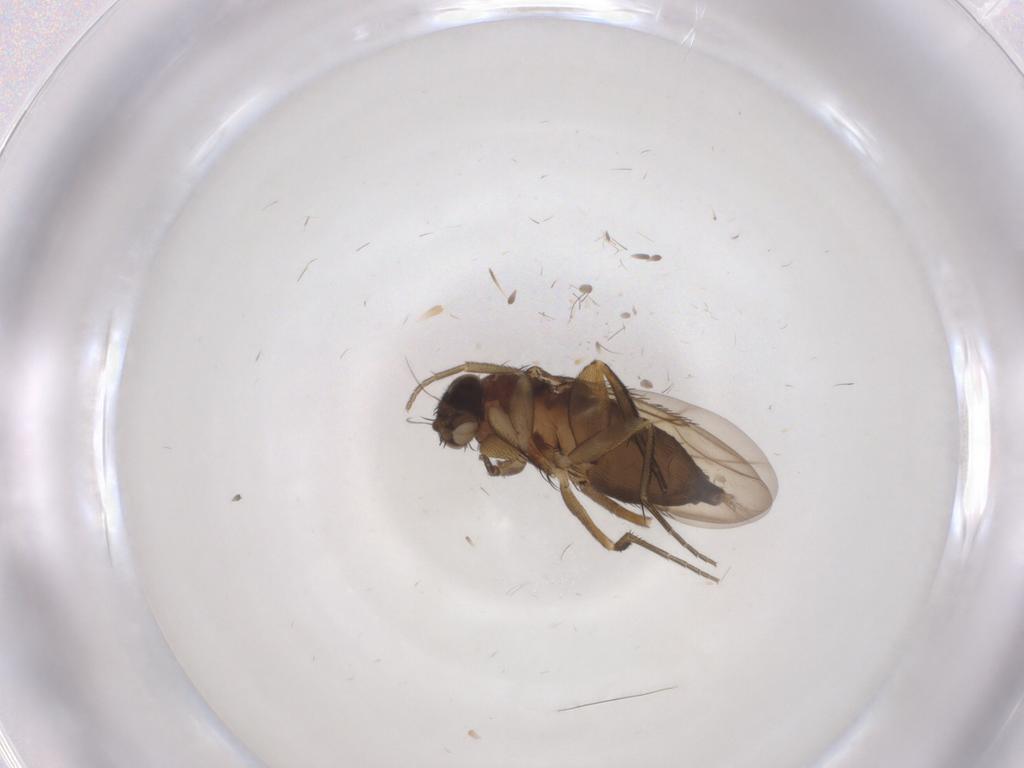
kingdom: Animalia
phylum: Arthropoda
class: Insecta
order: Diptera
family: Phoridae
